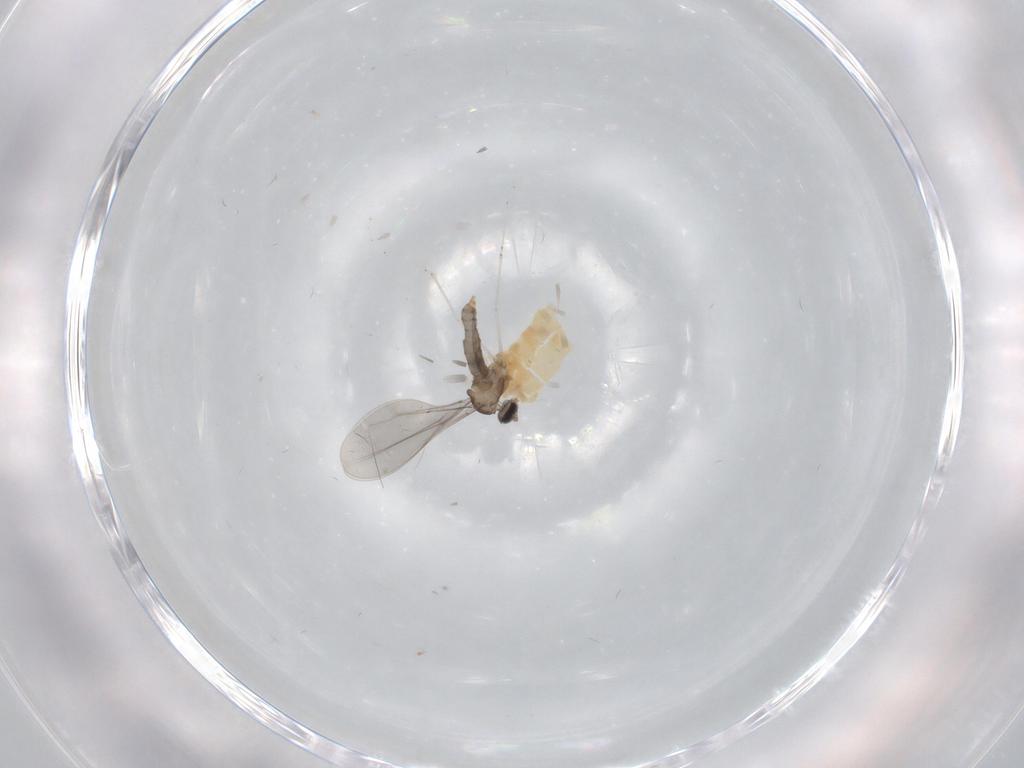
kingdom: Animalia
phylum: Arthropoda
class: Insecta
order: Diptera
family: Cecidomyiidae
